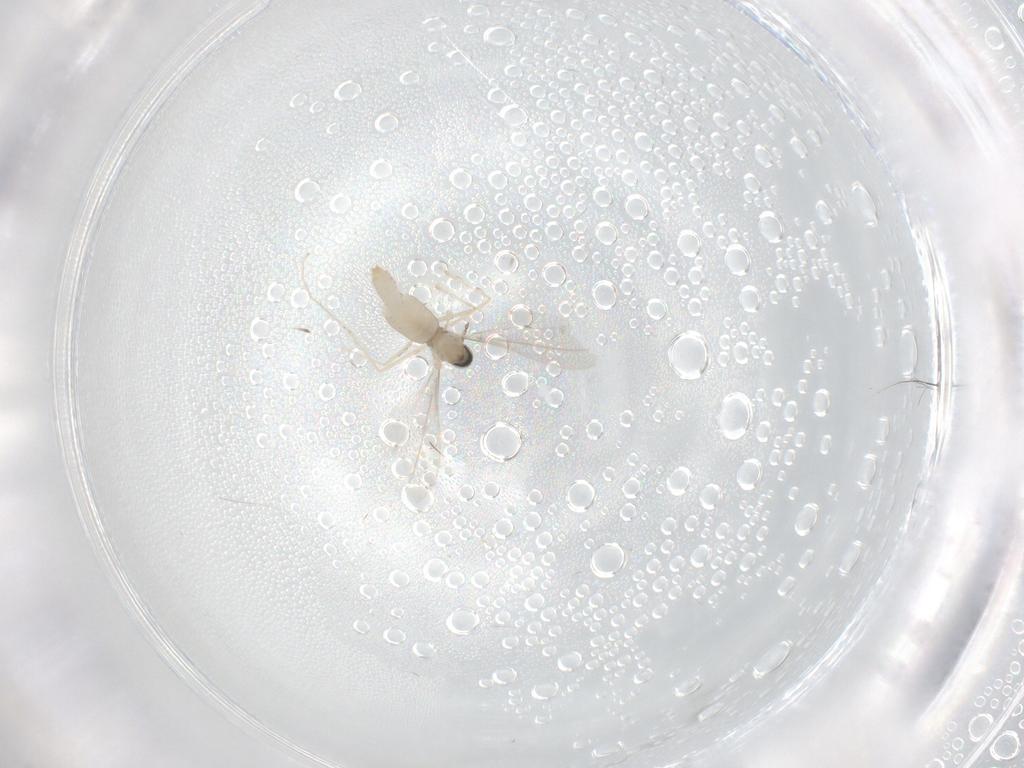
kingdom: Animalia
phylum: Arthropoda
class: Insecta
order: Diptera
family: Cecidomyiidae
